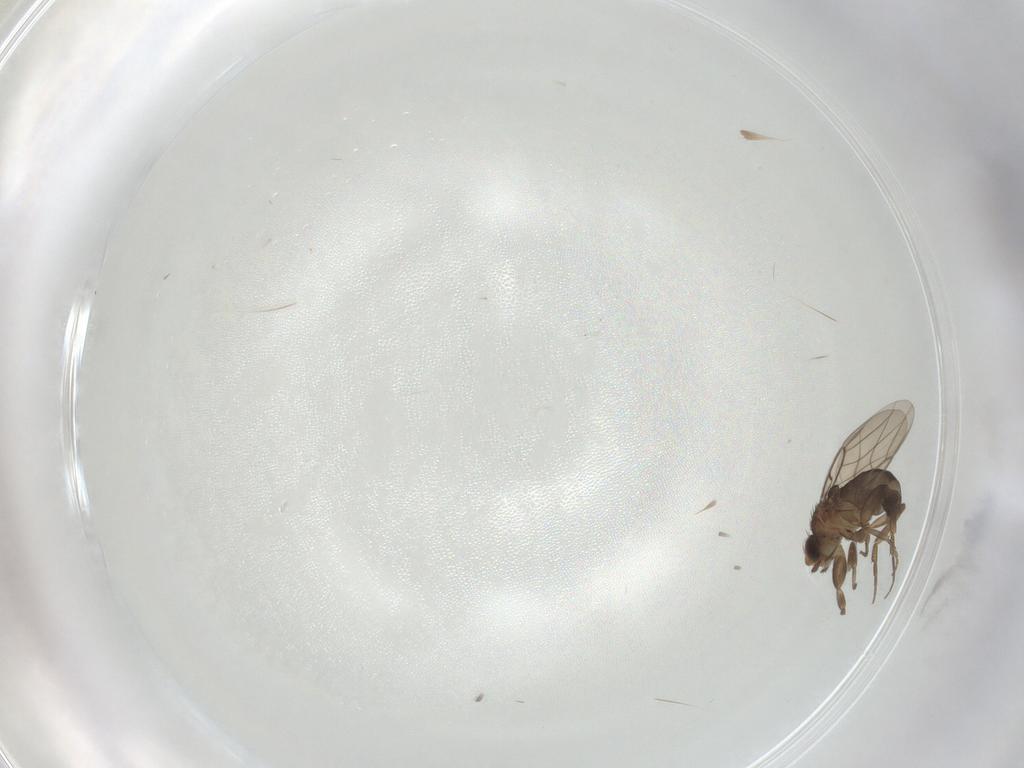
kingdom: Animalia
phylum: Arthropoda
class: Insecta
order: Diptera
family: Phoridae
